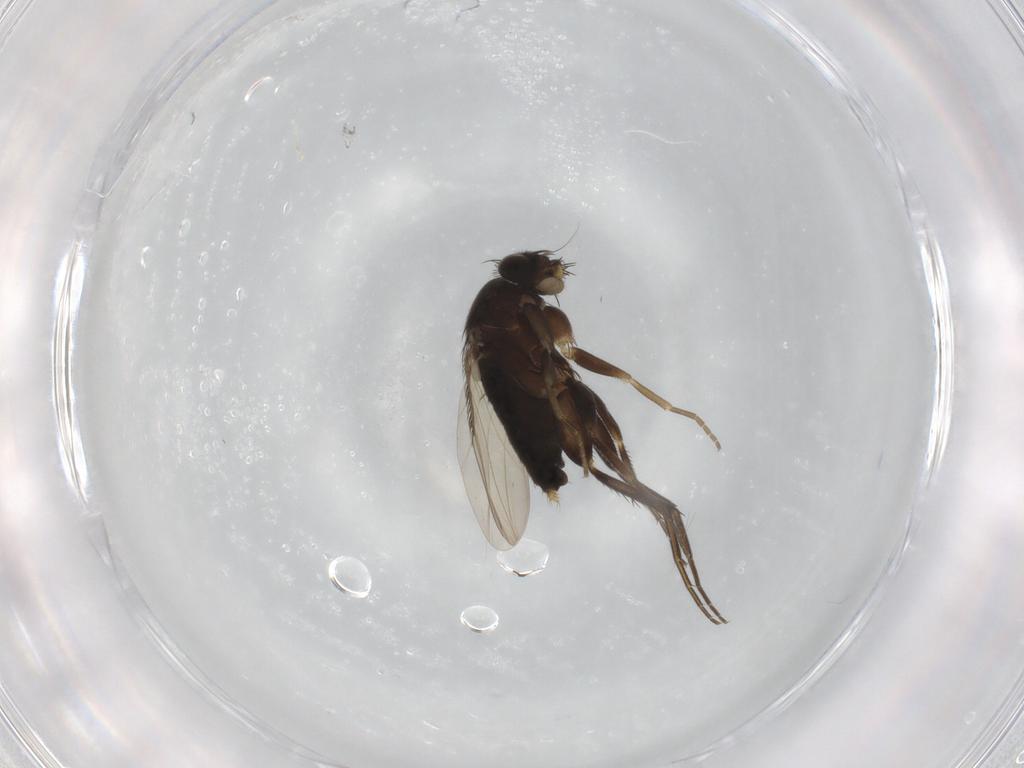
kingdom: Animalia
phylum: Arthropoda
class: Insecta
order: Diptera
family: Phoridae
